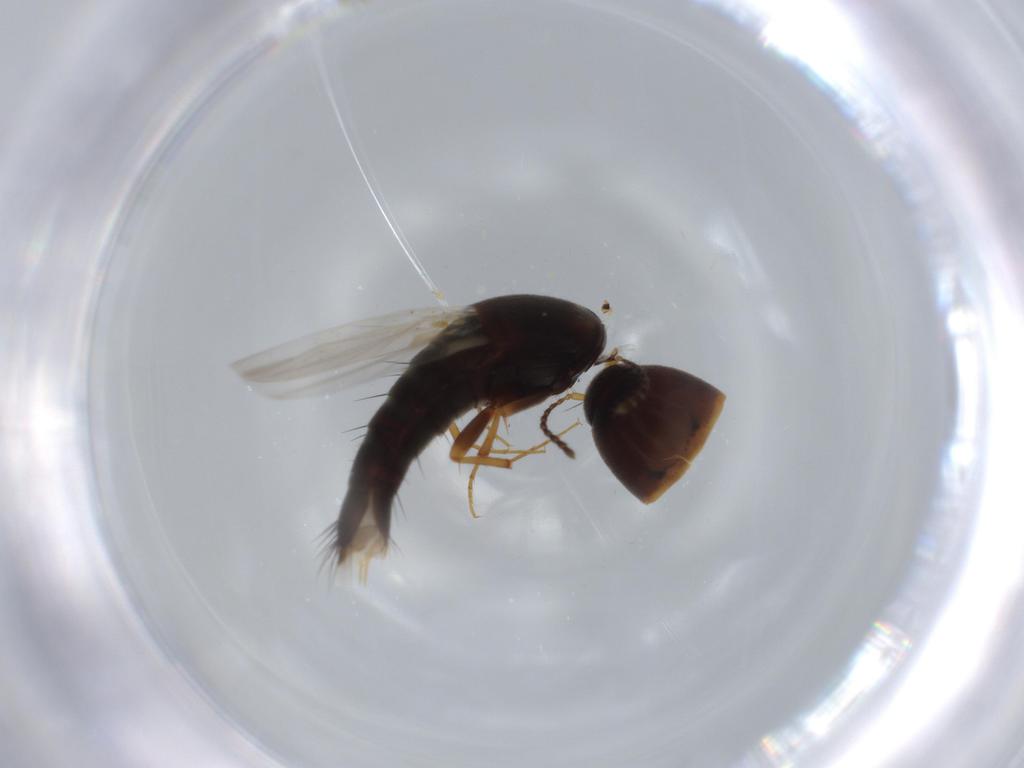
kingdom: Animalia
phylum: Arthropoda
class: Insecta
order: Coleoptera
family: Staphylinidae
